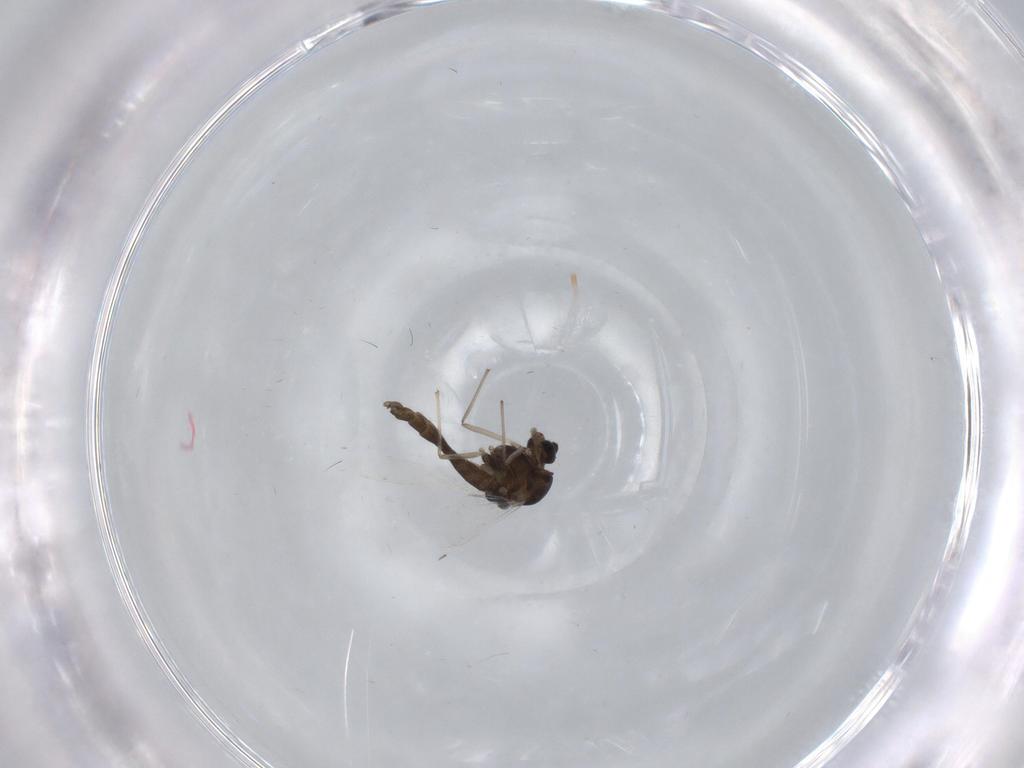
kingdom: Animalia
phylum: Arthropoda
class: Insecta
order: Diptera
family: Chironomidae
